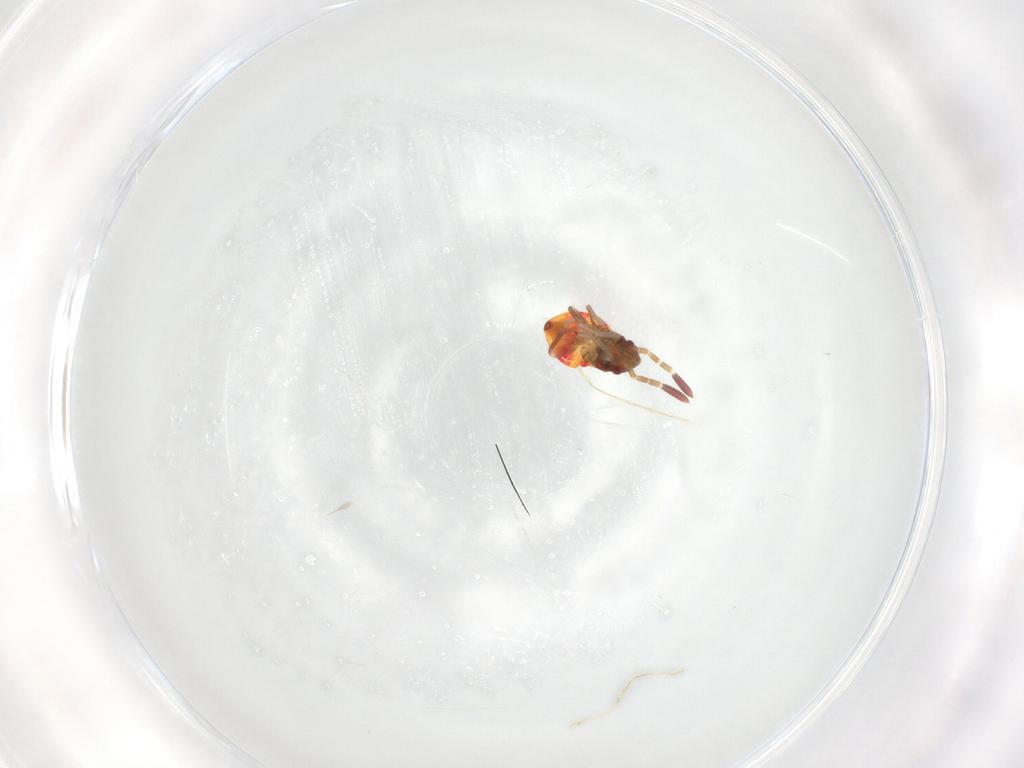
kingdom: Animalia
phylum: Arthropoda
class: Insecta
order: Hemiptera
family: Rhyparochromidae
